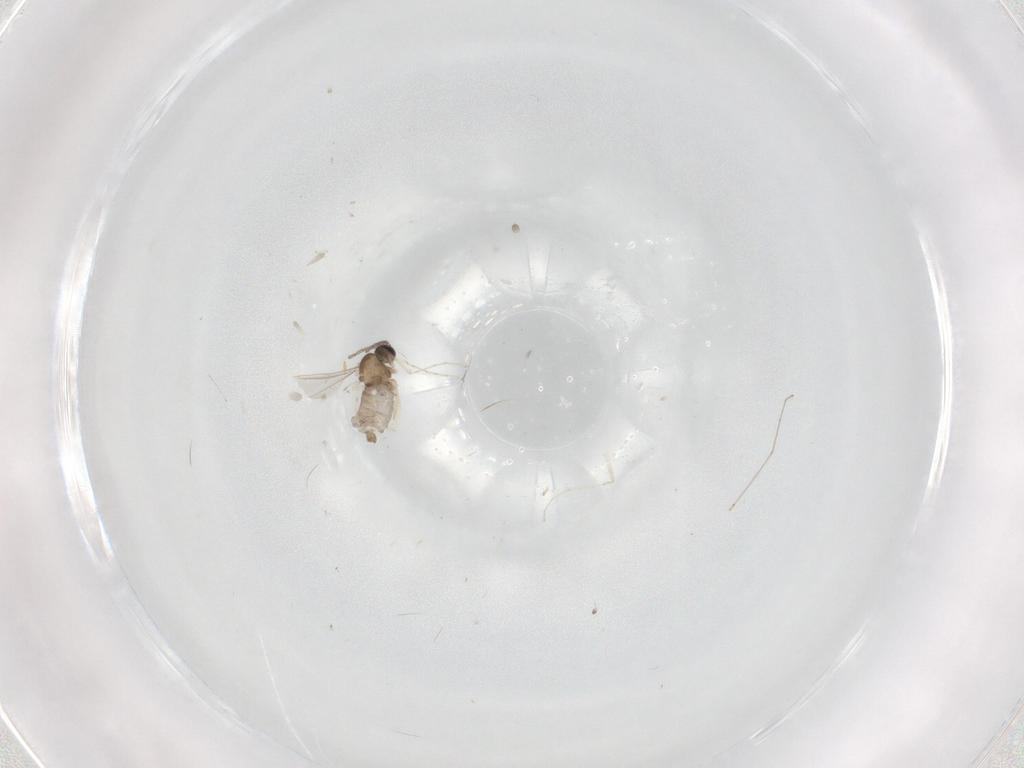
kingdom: Animalia
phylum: Arthropoda
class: Insecta
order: Diptera
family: Cecidomyiidae
